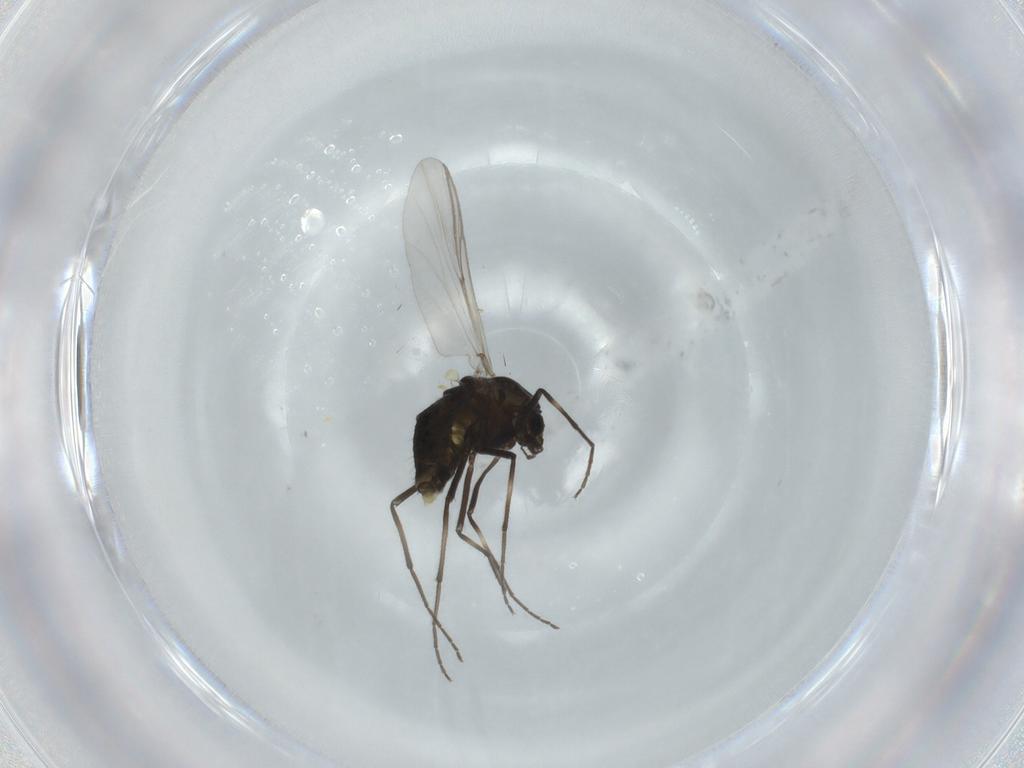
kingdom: Animalia
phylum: Arthropoda
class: Insecta
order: Diptera
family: Chironomidae
